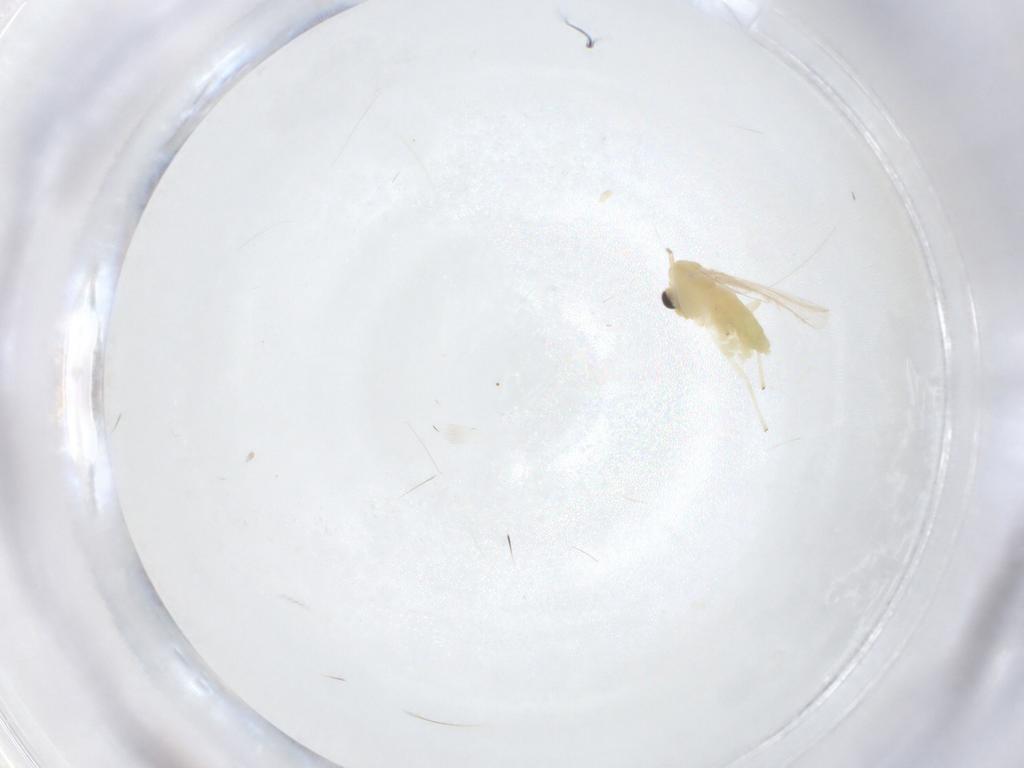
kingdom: Animalia
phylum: Arthropoda
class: Insecta
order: Diptera
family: Chironomidae
